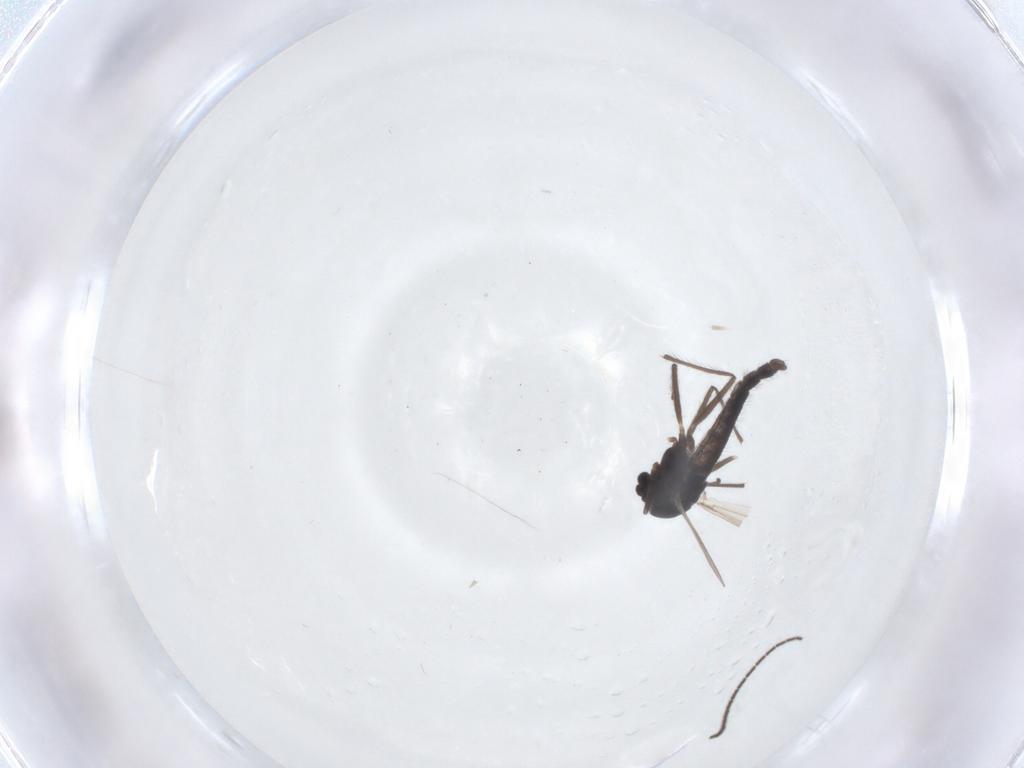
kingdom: Animalia
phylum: Arthropoda
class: Insecta
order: Diptera
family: Chironomidae
